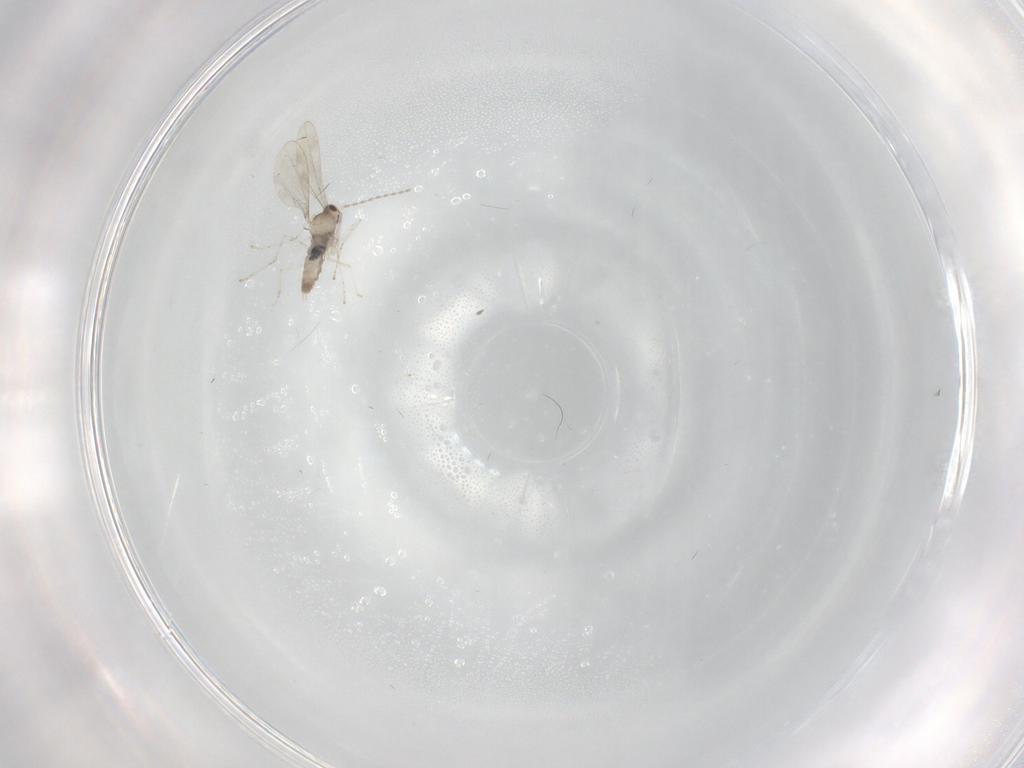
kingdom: Animalia
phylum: Arthropoda
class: Insecta
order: Diptera
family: Cecidomyiidae
